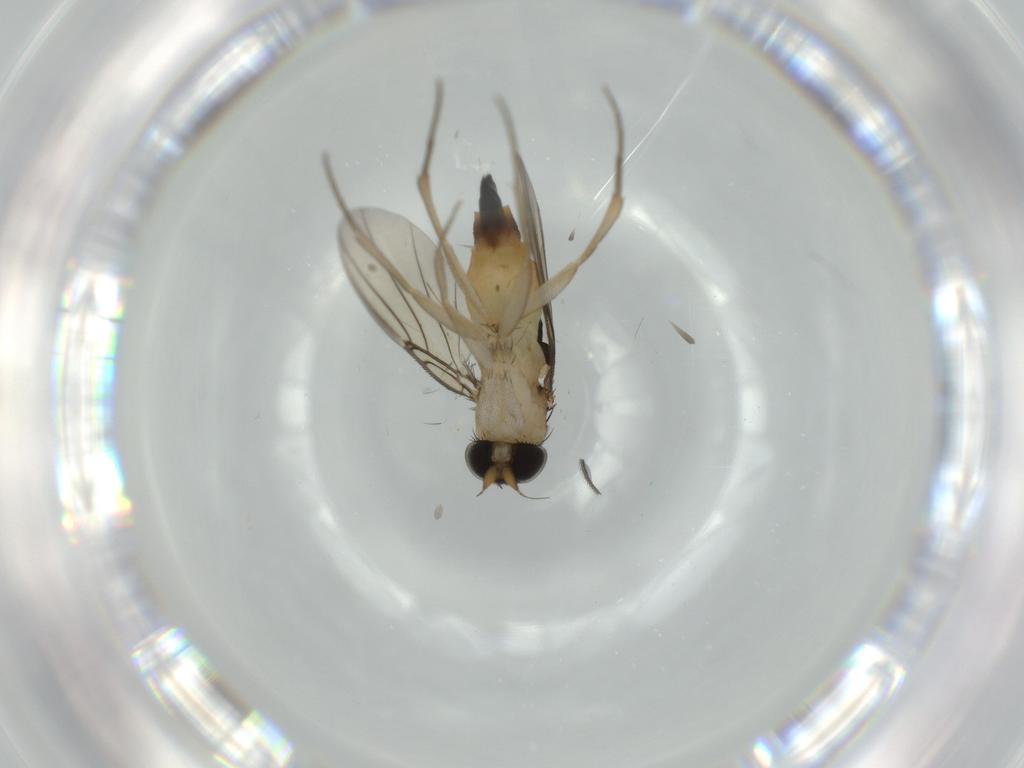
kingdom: Animalia
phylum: Arthropoda
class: Insecta
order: Diptera
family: Phoridae
